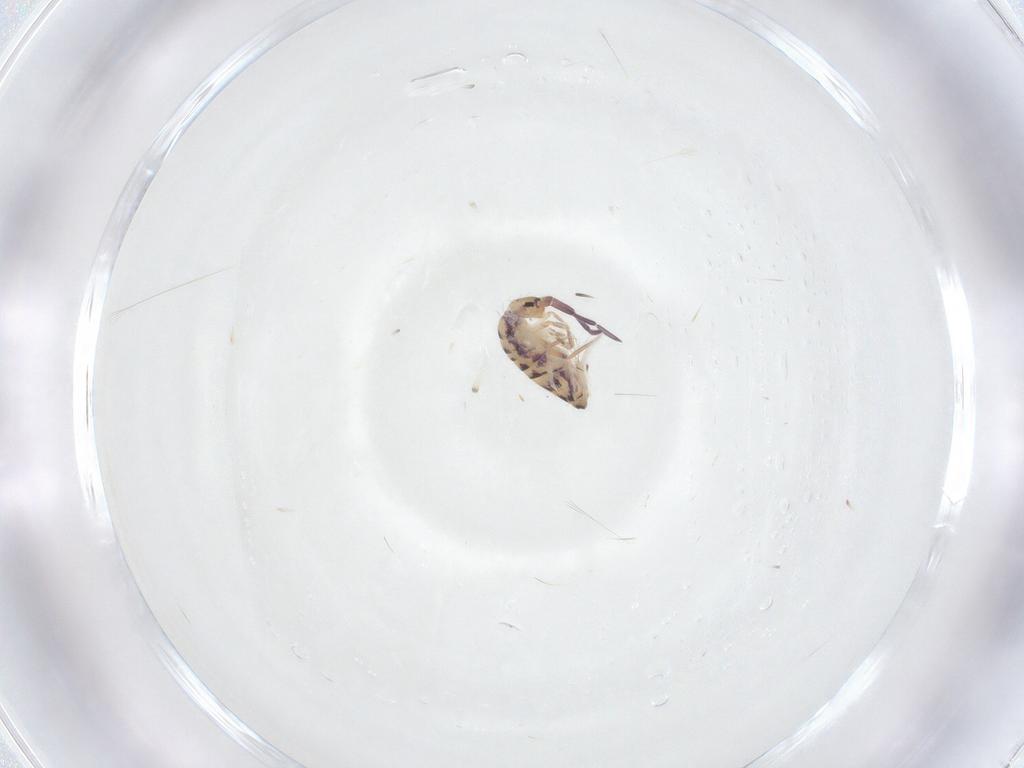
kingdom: Animalia
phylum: Arthropoda
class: Collembola
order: Entomobryomorpha
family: Entomobryidae
